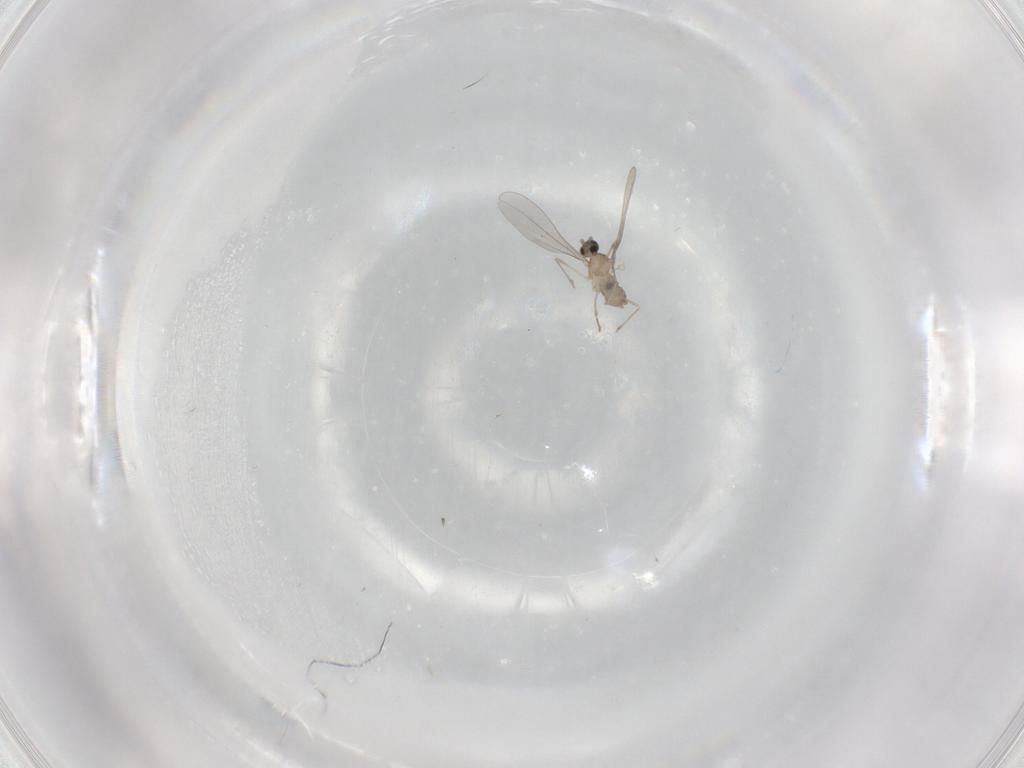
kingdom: Animalia
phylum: Arthropoda
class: Insecta
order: Diptera
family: Cecidomyiidae
